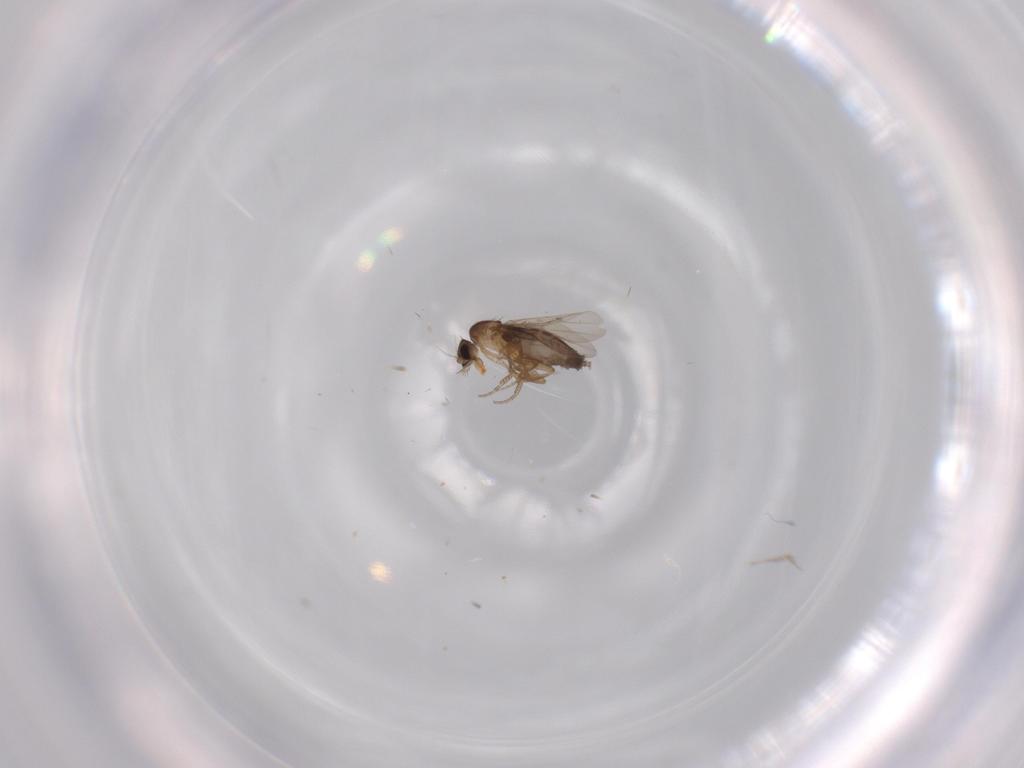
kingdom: Animalia
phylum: Arthropoda
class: Insecta
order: Diptera
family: Phoridae
